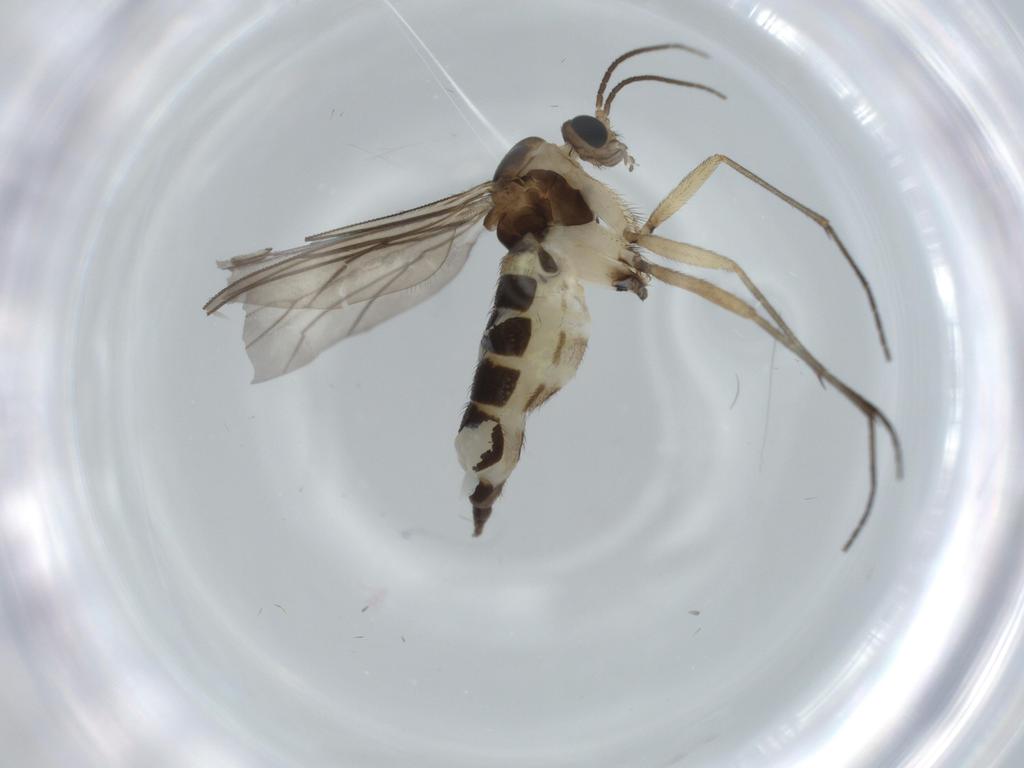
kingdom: Animalia
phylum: Arthropoda
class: Insecta
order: Diptera
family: Sciaridae
